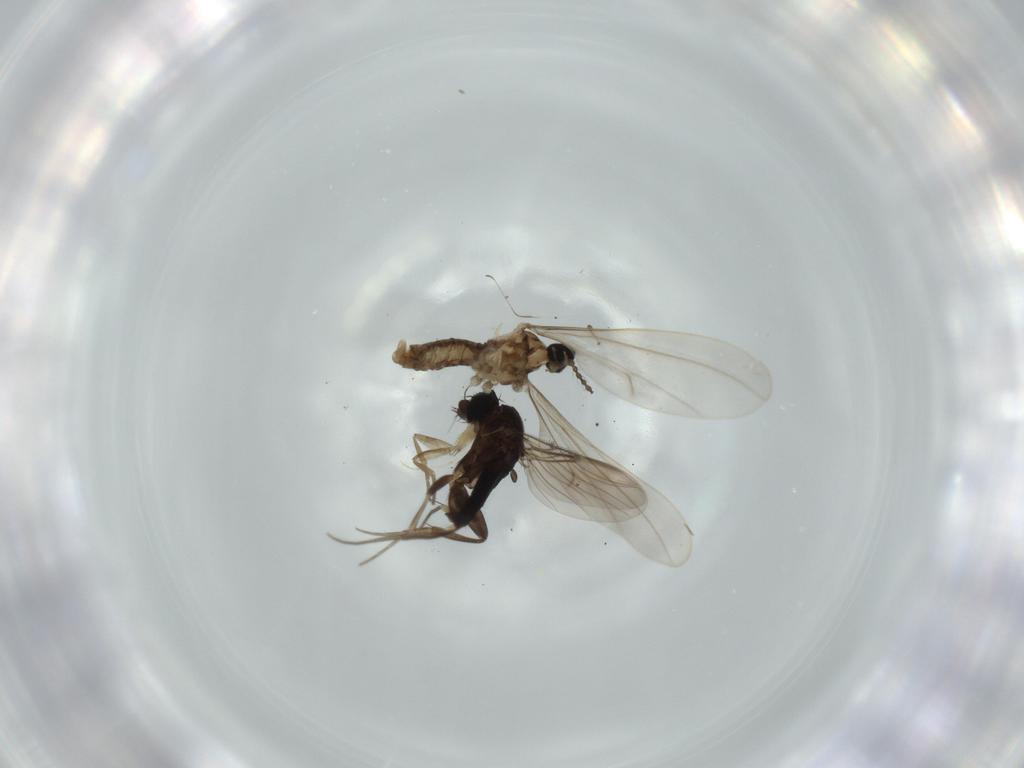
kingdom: Animalia
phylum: Arthropoda
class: Insecta
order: Diptera
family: Cecidomyiidae
